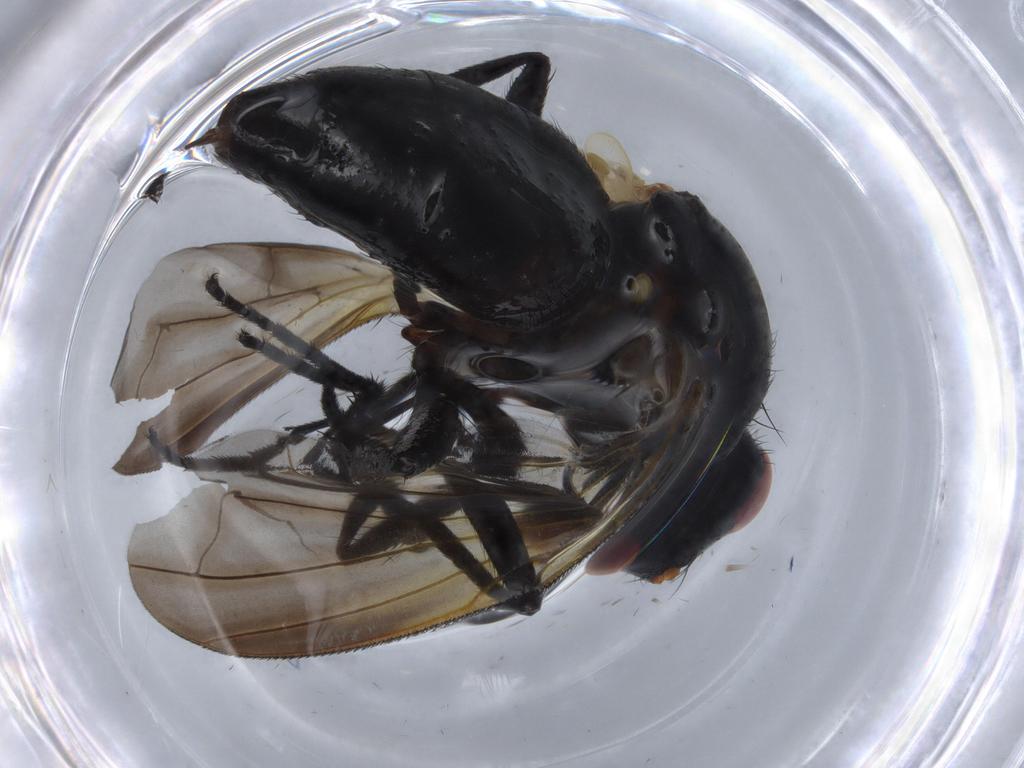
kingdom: Animalia
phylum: Arthropoda
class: Insecta
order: Diptera
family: Calliphoridae
